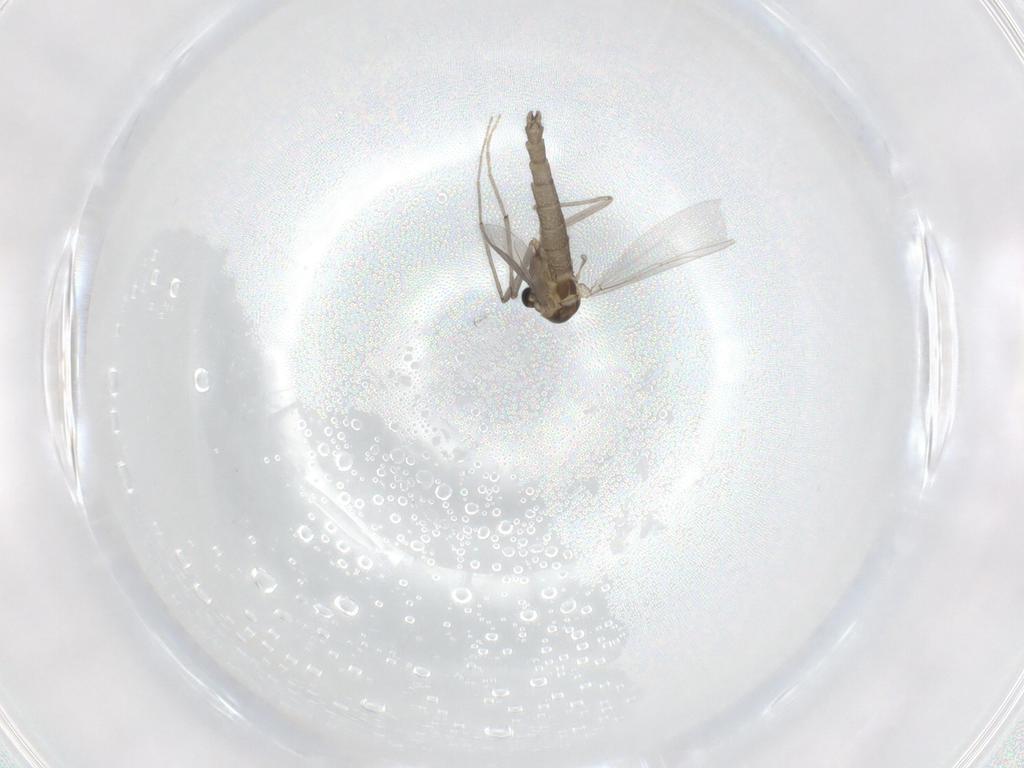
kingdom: Animalia
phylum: Arthropoda
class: Insecta
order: Diptera
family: Chironomidae
